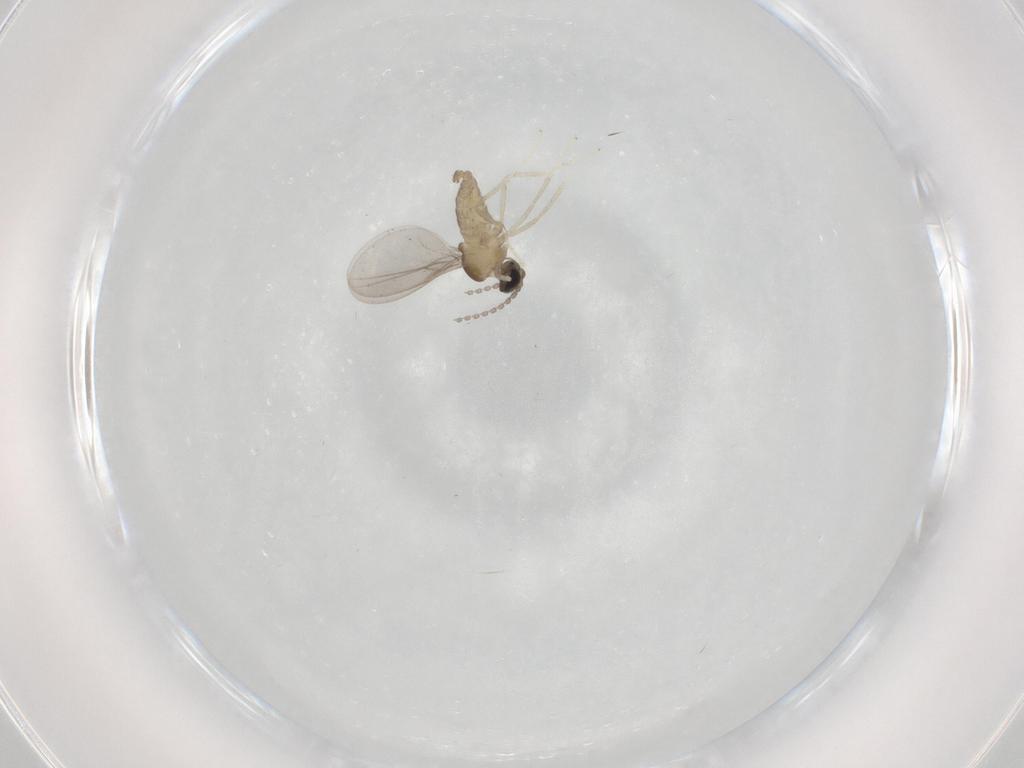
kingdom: Animalia
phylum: Arthropoda
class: Insecta
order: Diptera
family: Cecidomyiidae
